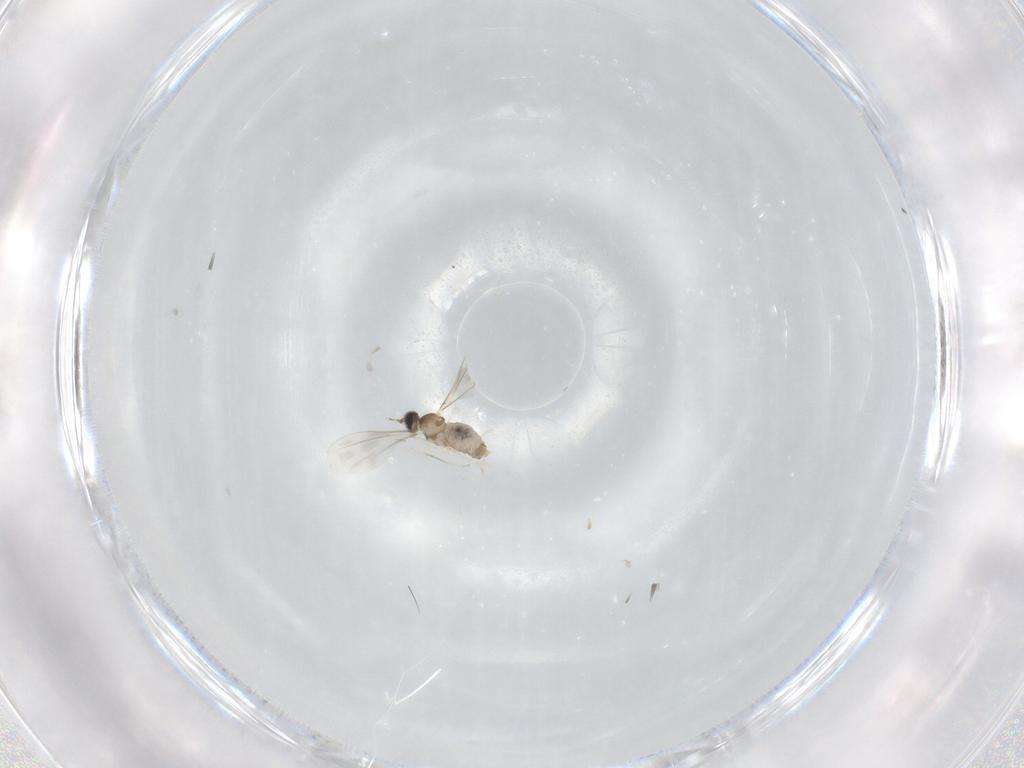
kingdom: Animalia
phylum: Arthropoda
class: Insecta
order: Diptera
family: Cecidomyiidae
